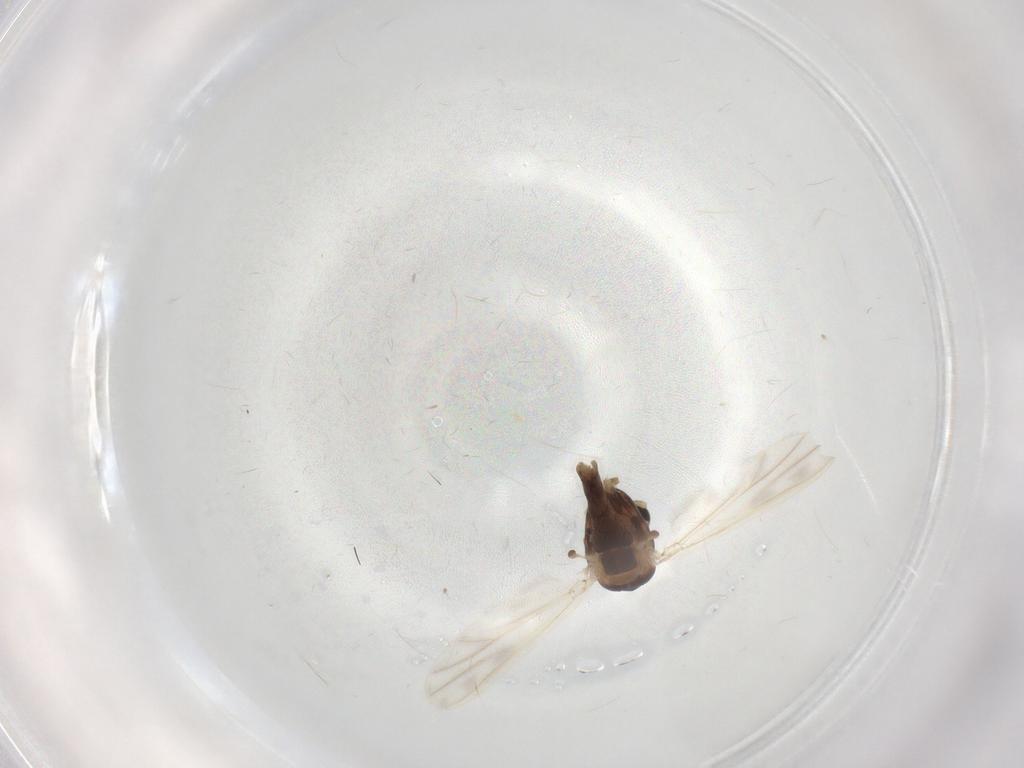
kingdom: Animalia
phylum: Arthropoda
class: Insecta
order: Diptera
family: Chironomidae
